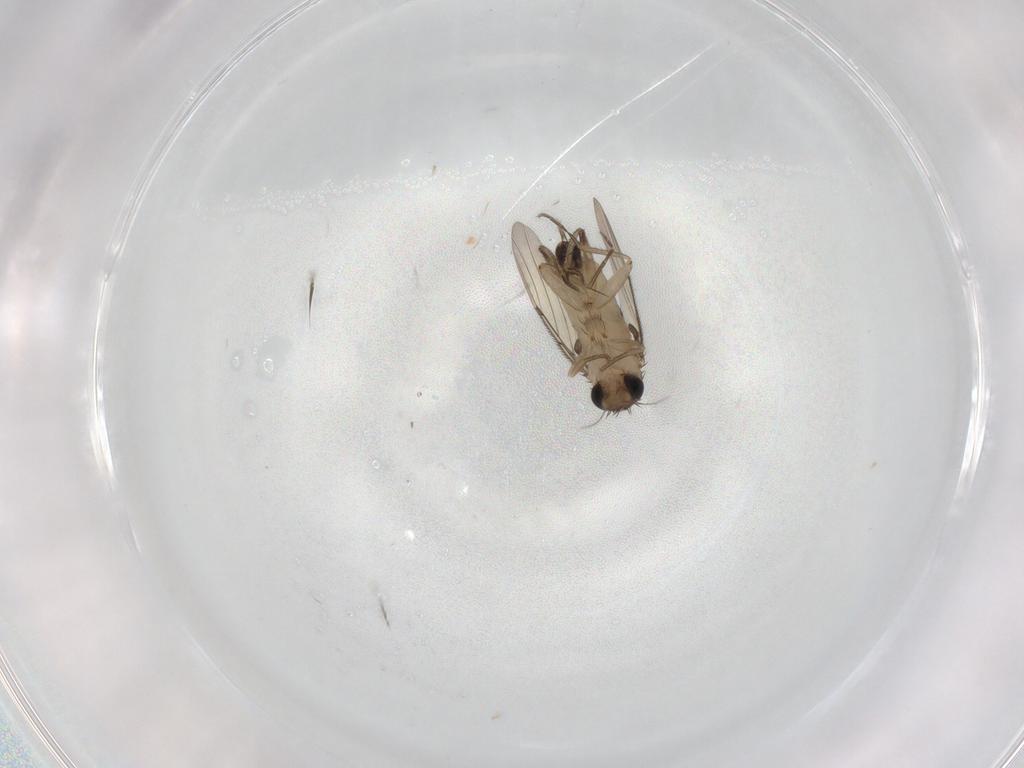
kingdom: Animalia
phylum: Arthropoda
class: Insecta
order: Diptera
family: Phoridae
